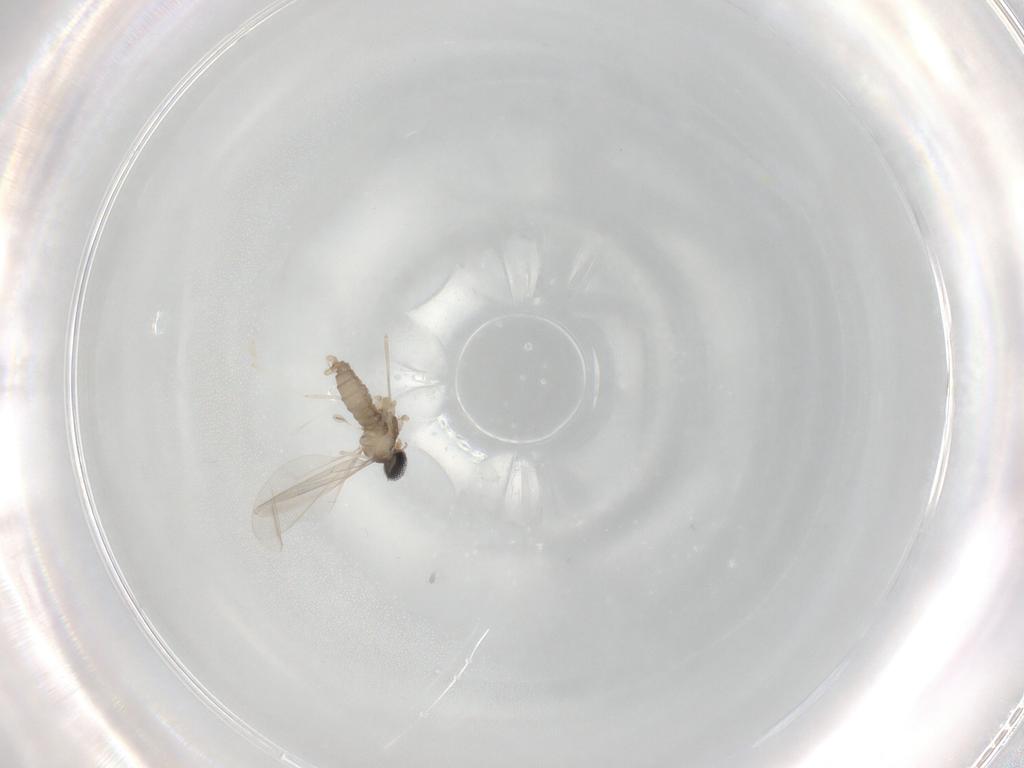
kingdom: Animalia
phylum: Arthropoda
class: Insecta
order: Diptera
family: Cecidomyiidae
